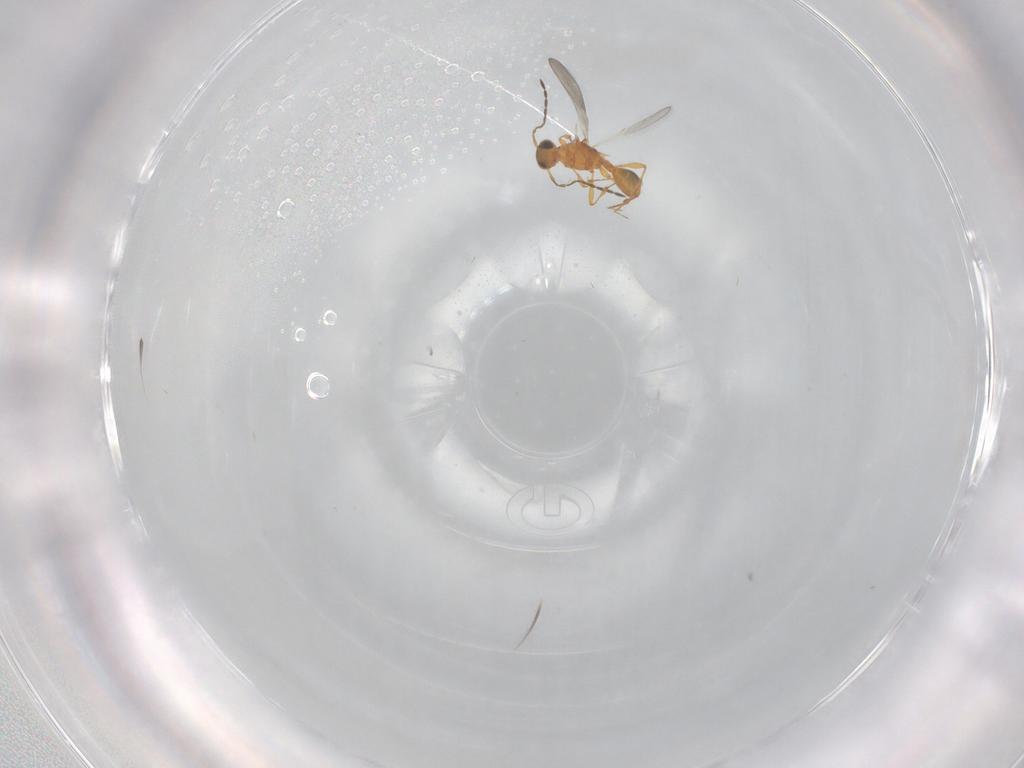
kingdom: Animalia
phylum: Arthropoda
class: Insecta
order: Hymenoptera
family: Platygastridae
